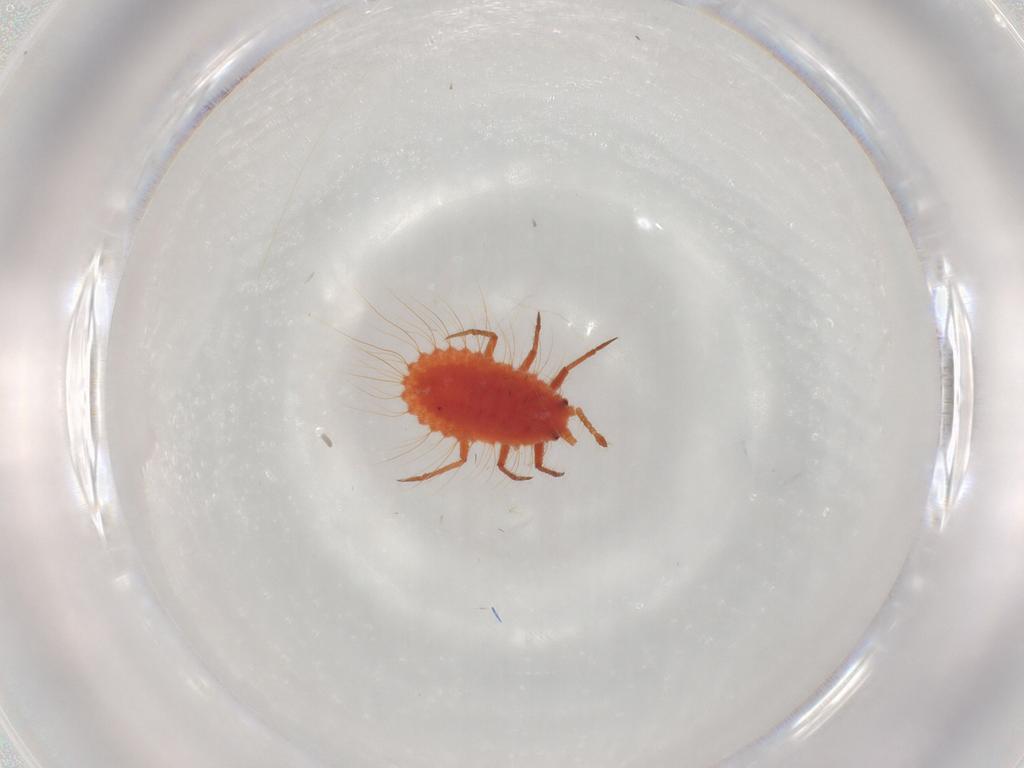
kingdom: Animalia
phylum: Arthropoda
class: Insecta
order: Hemiptera
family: Monophlebidae
